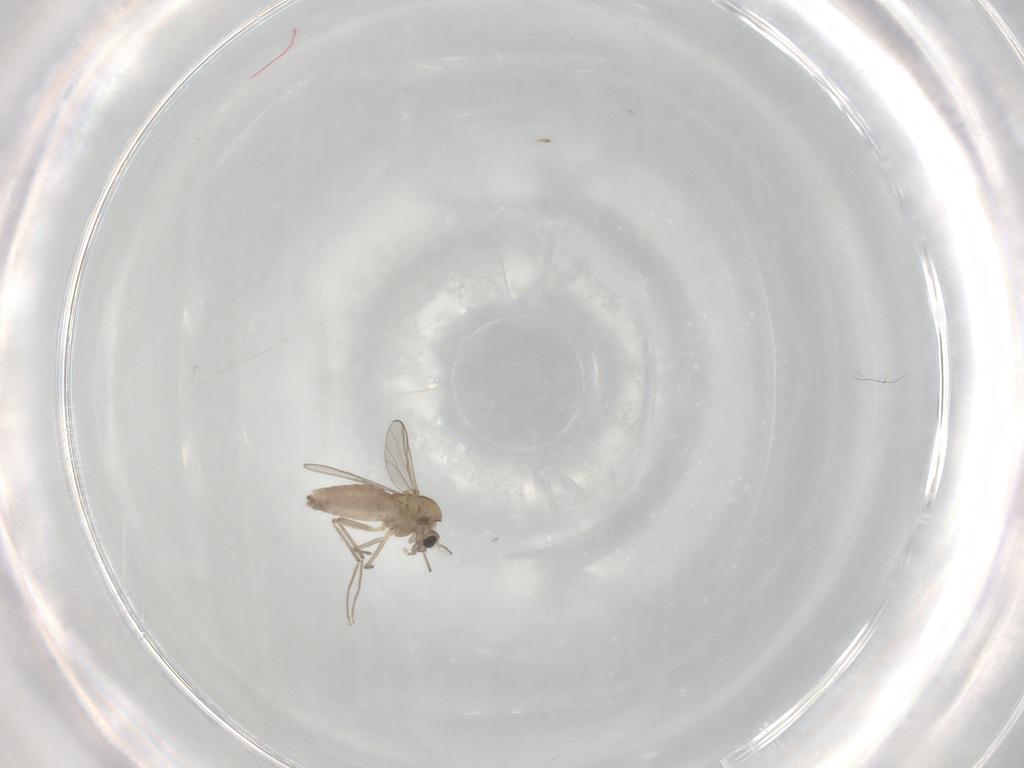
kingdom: Animalia
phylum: Arthropoda
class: Insecta
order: Diptera
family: Chironomidae
